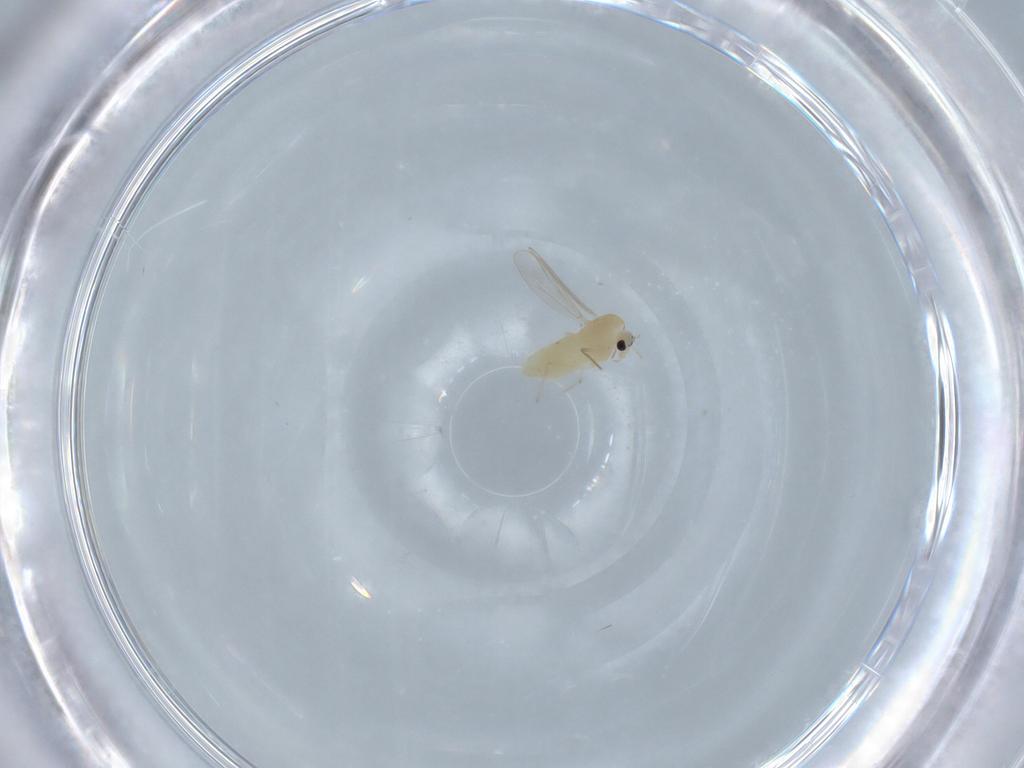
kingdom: Animalia
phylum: Arthropoda
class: Insecta
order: Diptera
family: Chironomidae
